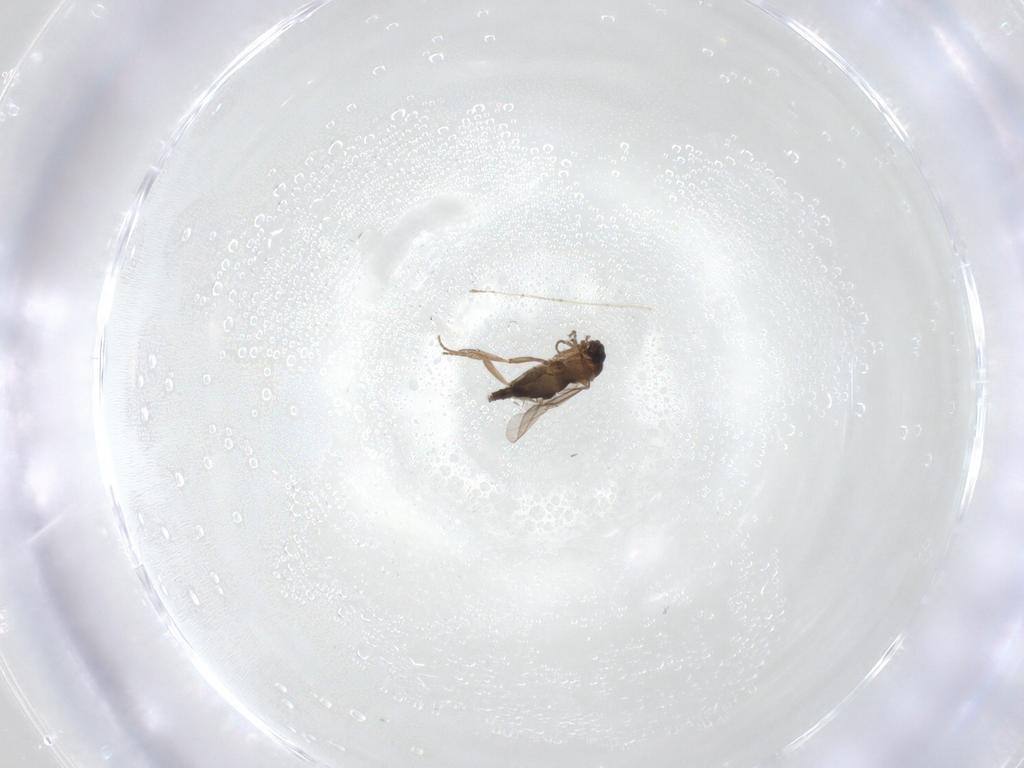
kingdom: Animalia
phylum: Arthropoda
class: Insecta
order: Diptera
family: Phoridae
